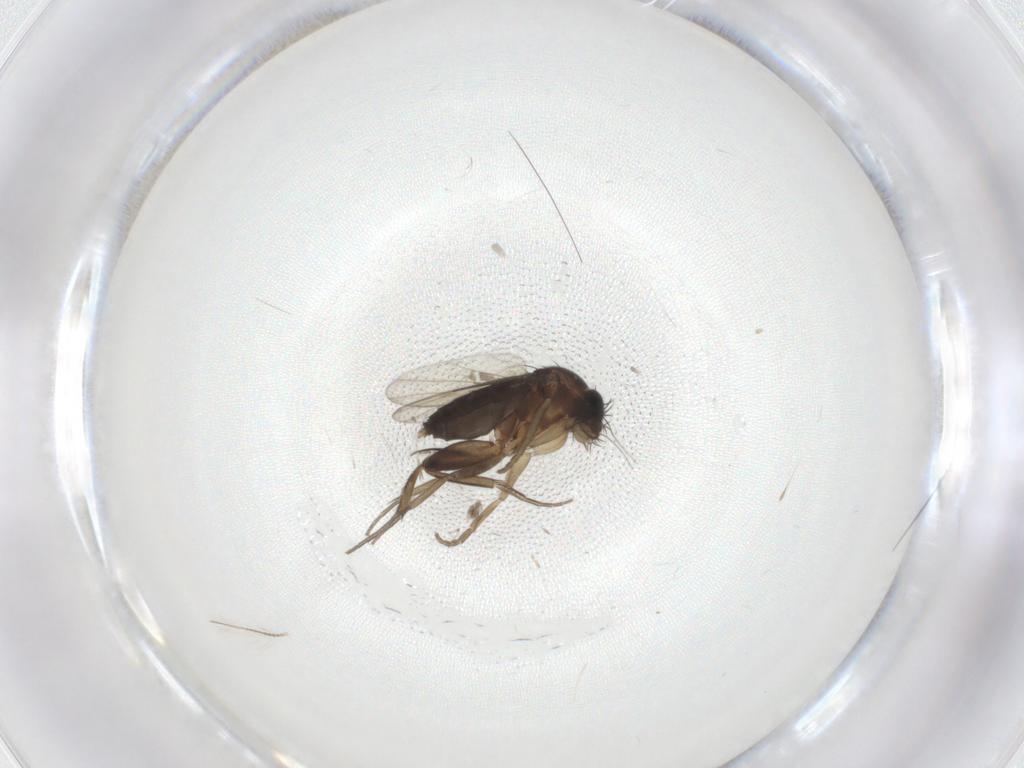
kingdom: Animalia
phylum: Arthropoda
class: Insecta
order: Diptera
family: Phoridae
